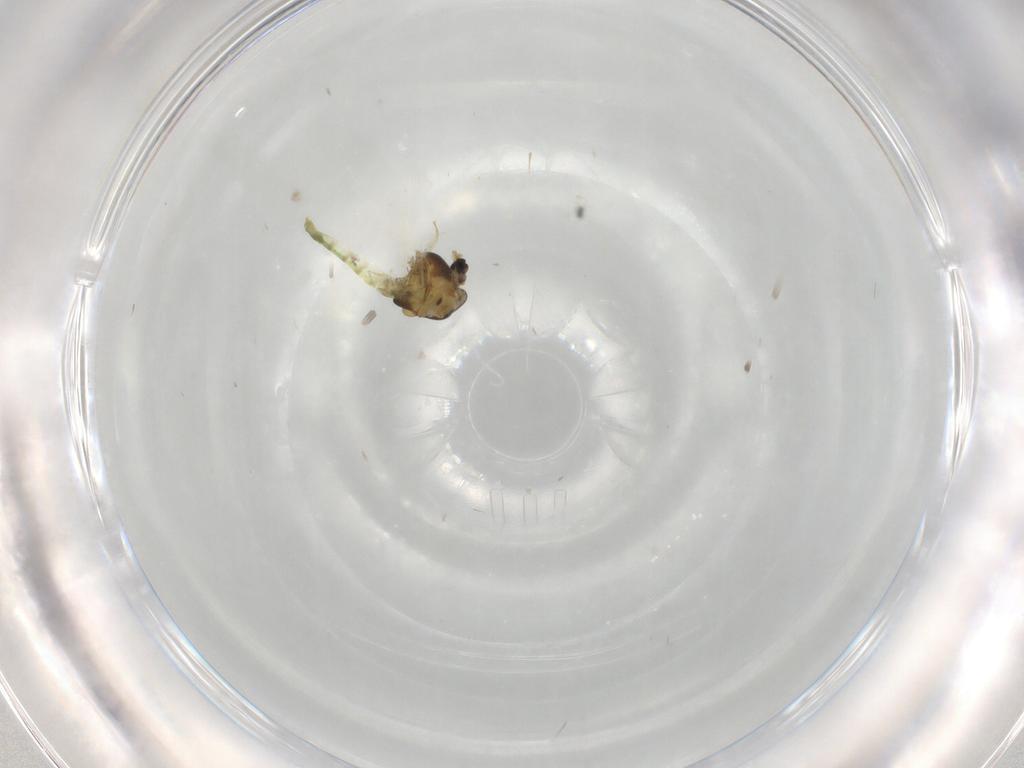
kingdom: Animalia
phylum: Arthropoda
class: Insecta
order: Diptera
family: Chironomidae
